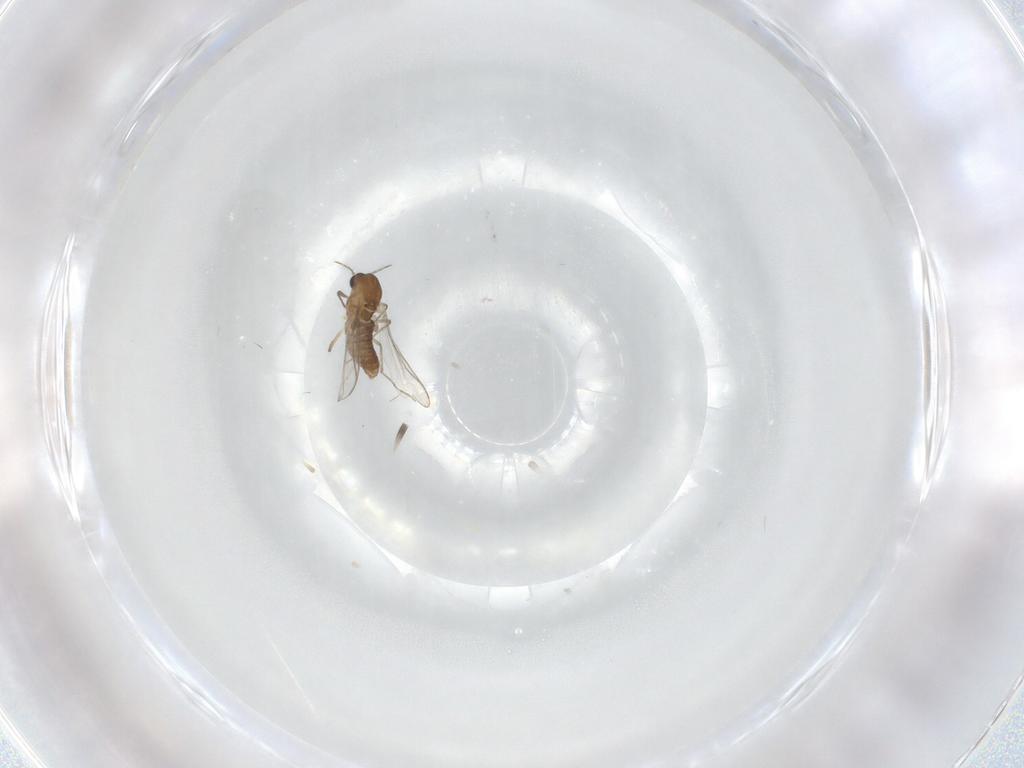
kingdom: Animalia
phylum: Arthropoda
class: Insecta
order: Diptera
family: Chironomidae
